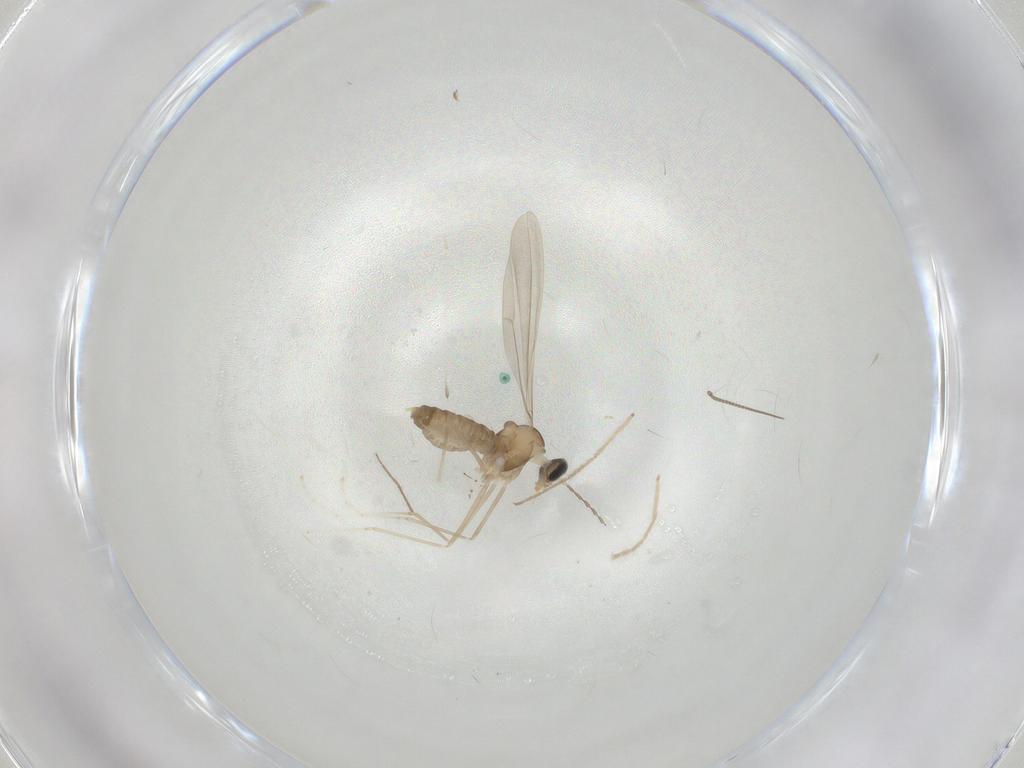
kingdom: Animalia
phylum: Arthropoda
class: Insecta
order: Diptera
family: Cecidomyiidae
